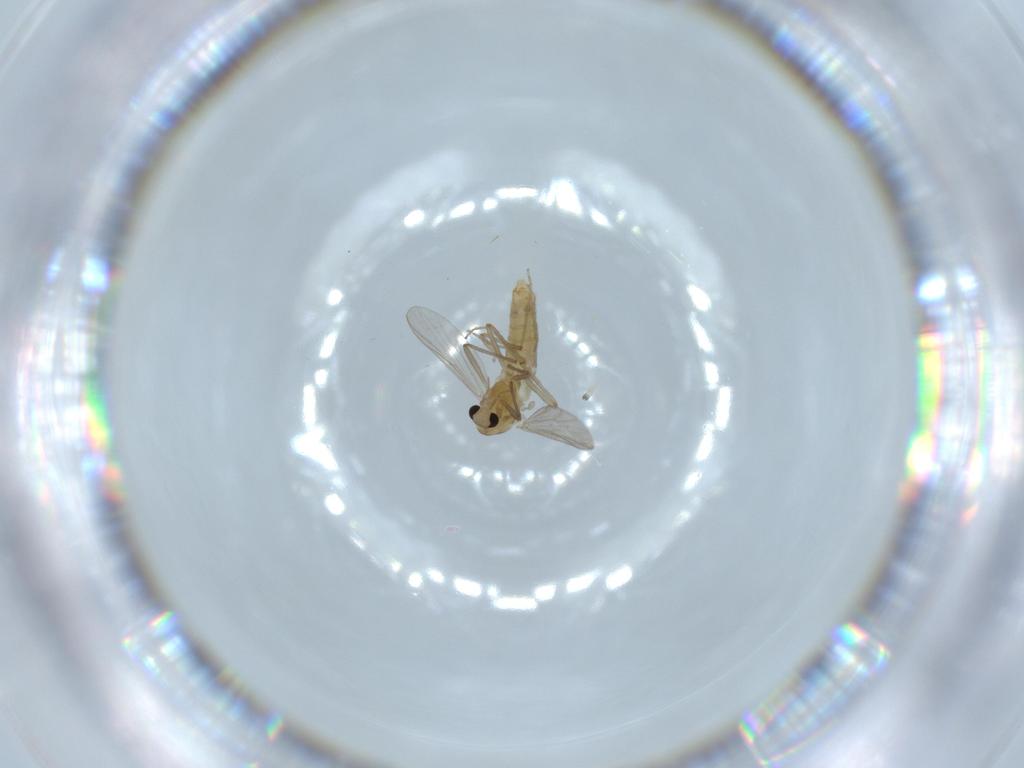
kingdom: Animalia
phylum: Arthropoda
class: Insecta
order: Diptera
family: Chironomidae
